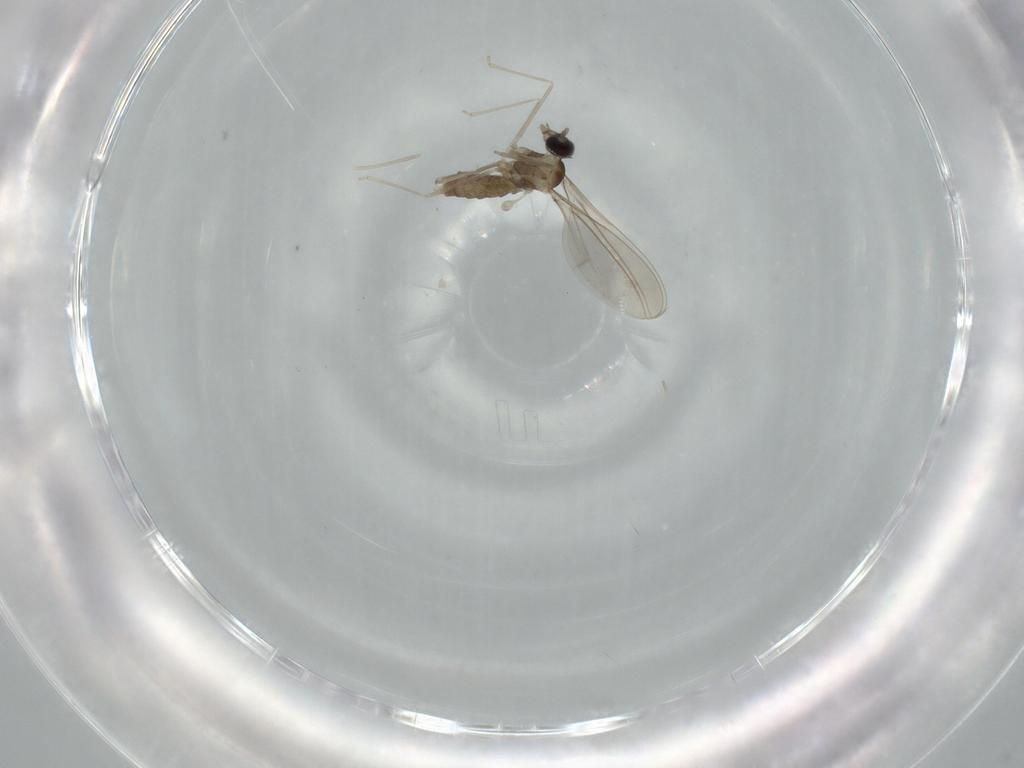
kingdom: Animalia
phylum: Arthropoda
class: Insecta
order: Diptera
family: Cecidomyiidae
